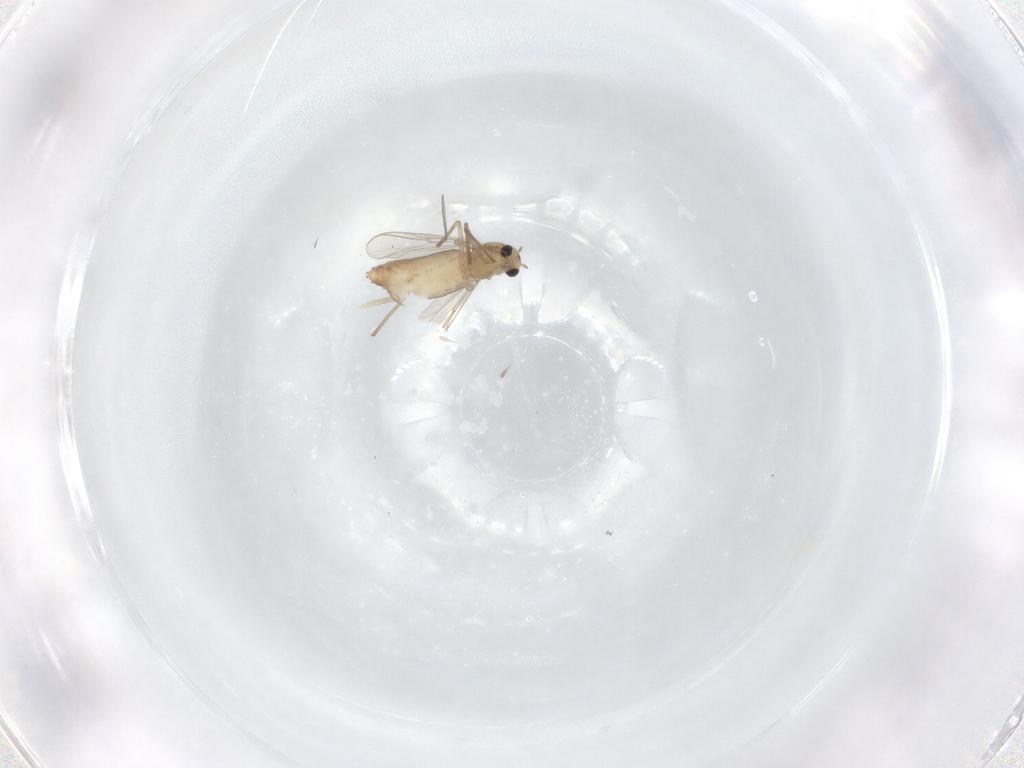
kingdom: Animalia
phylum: Arthropoda
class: Insecta
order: Diptera
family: Chironomidae
